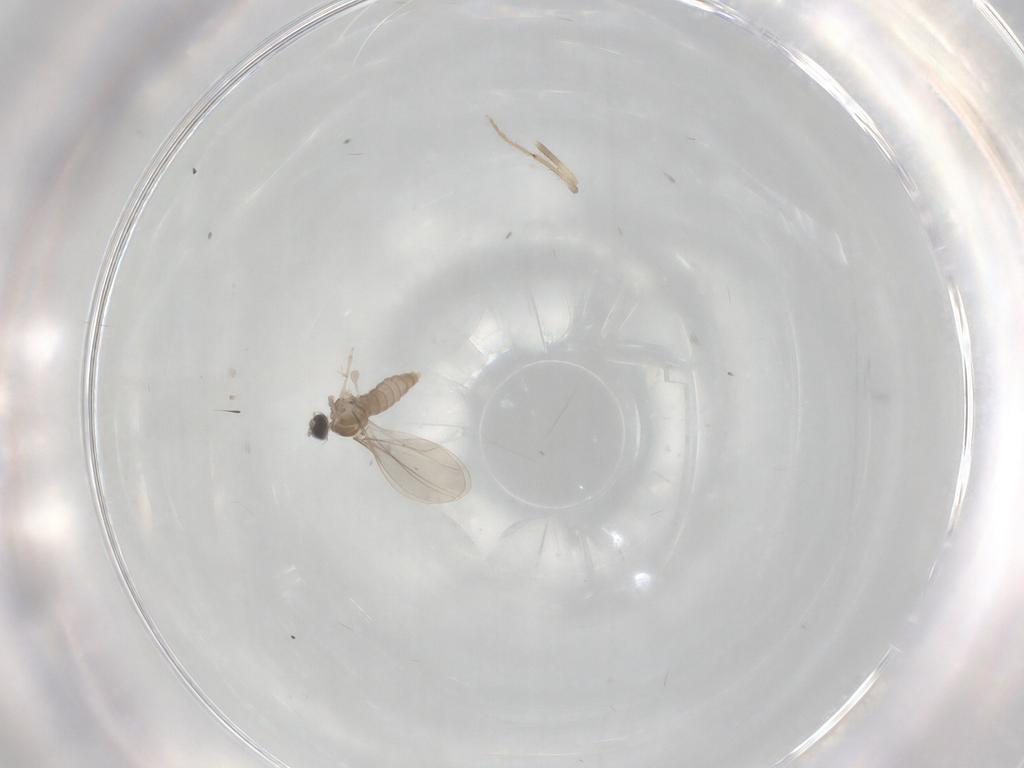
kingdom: Animalia
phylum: Arthropoda
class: Insecta
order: Diptera
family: Cecidomyiidae
